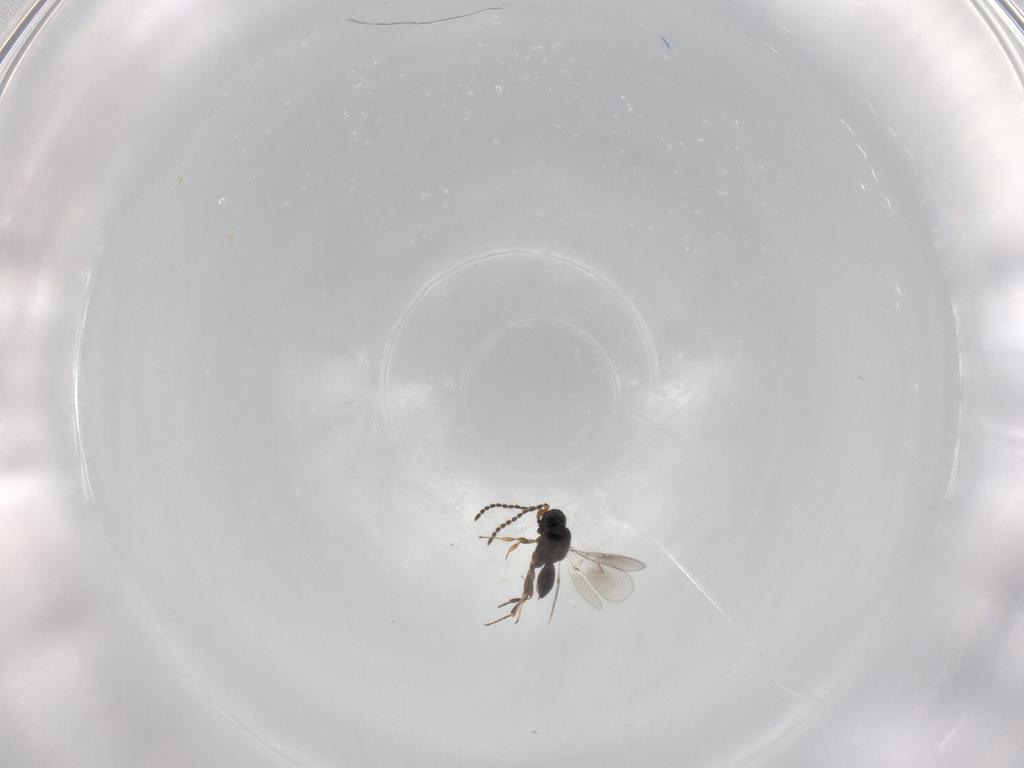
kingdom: Animalia
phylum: Arthropoda
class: Insecta
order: Hymenoptera
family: Scelionidae
